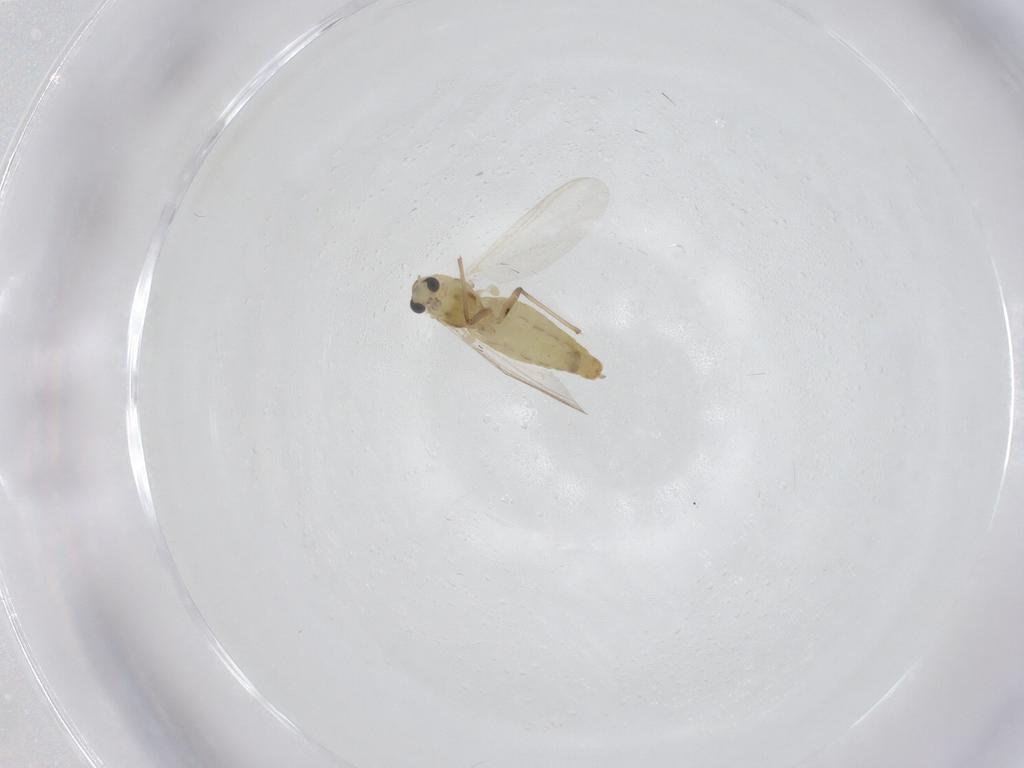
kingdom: Animalia
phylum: Arthropoda
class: Insecta
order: Diptera
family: Chironomidae
